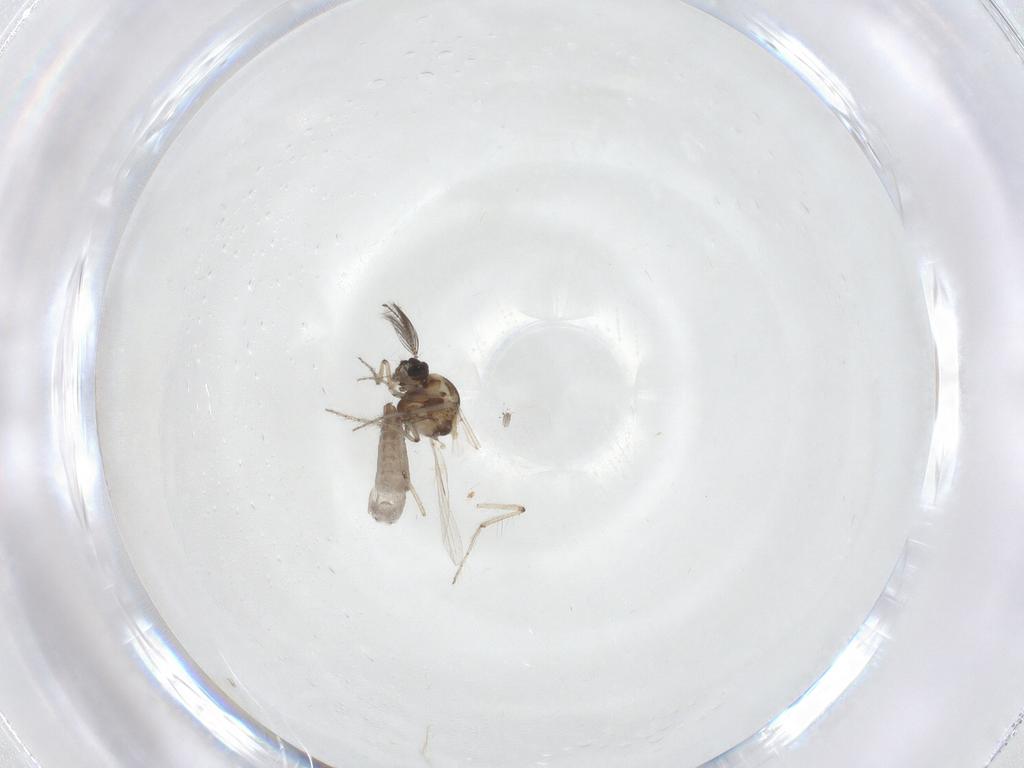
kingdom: Animalia
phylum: Arthropoda
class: Insecta
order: Diptera
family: Ceratopogonidae
